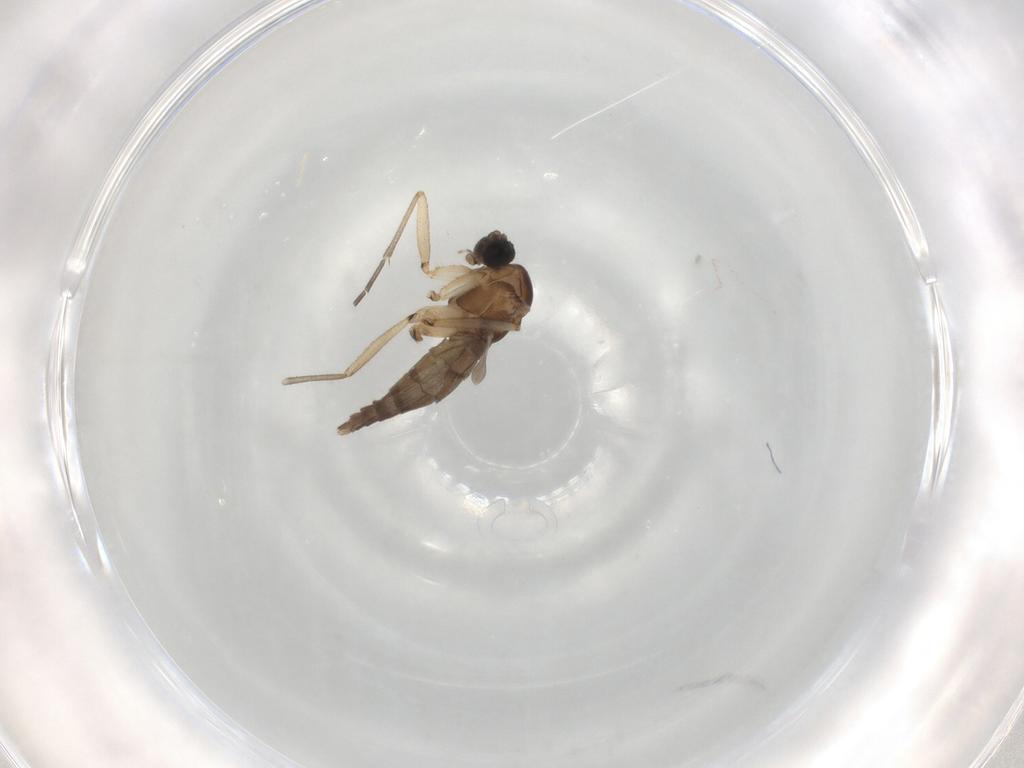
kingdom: Animalia
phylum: Arthropoda
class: Insecta
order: Diptera
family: Sciaridae
